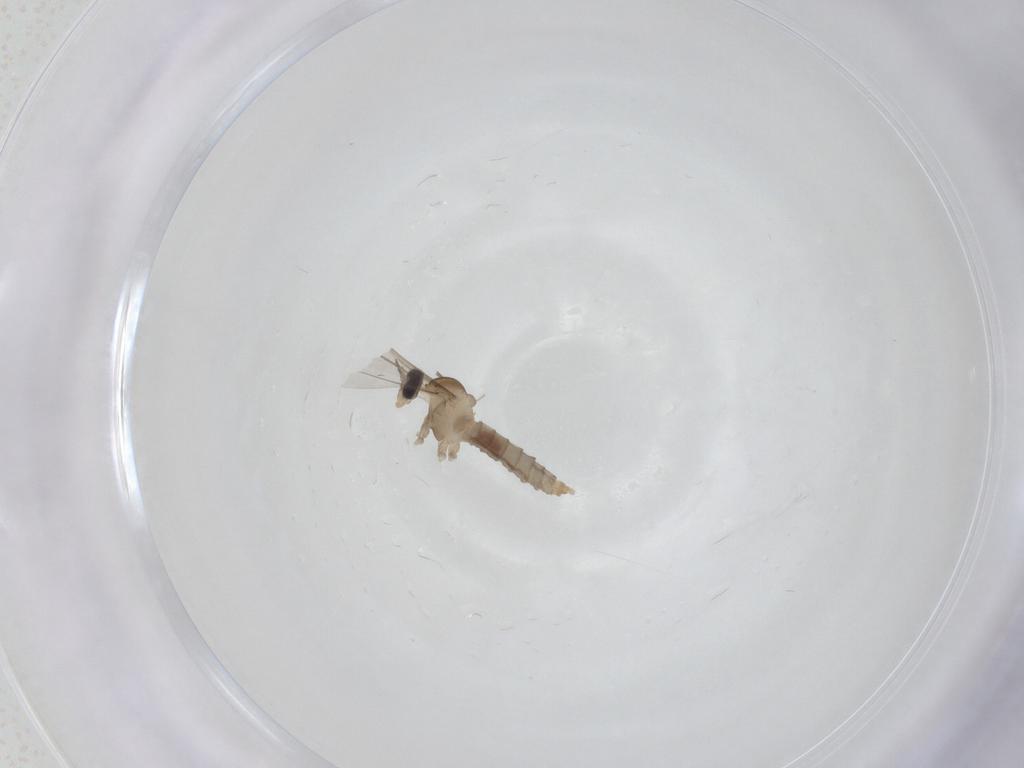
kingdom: Animalia
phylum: Arthropoda
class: Insecta
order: Diptera
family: Cecidomyiidae
